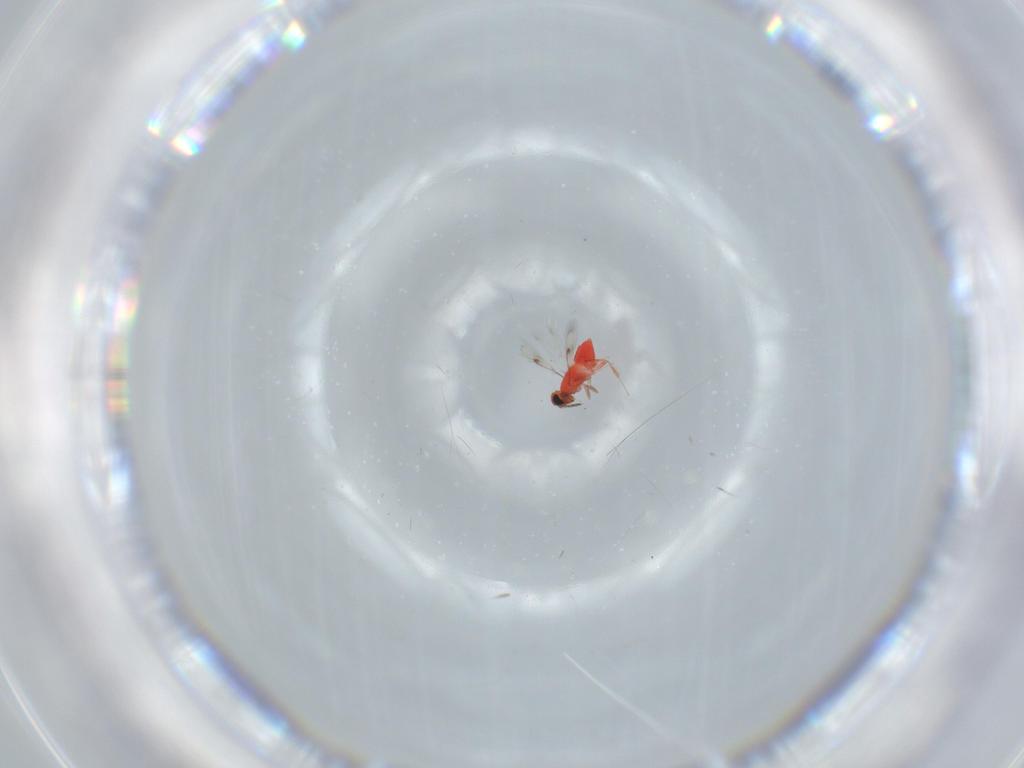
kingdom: Animalia
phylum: Arthropoda
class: Insecta
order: Hymenoptera
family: Trichogrammatidae
